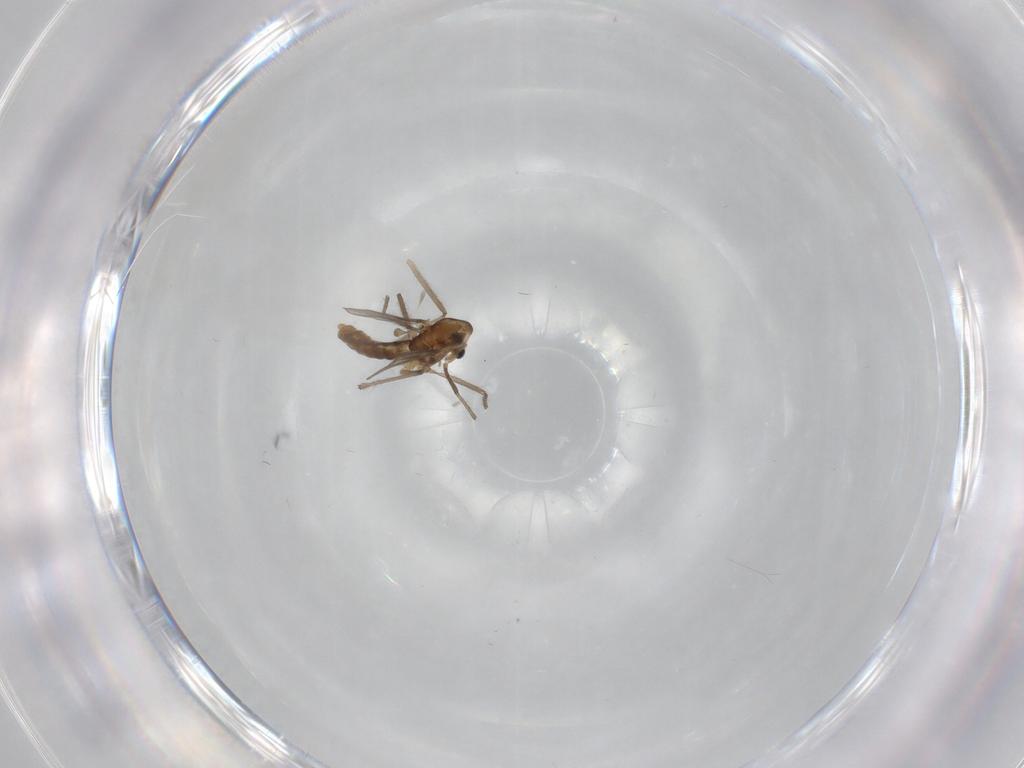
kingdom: Animalia
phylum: Arthropoda
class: Insecta
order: Diptera
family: Chironomidae
